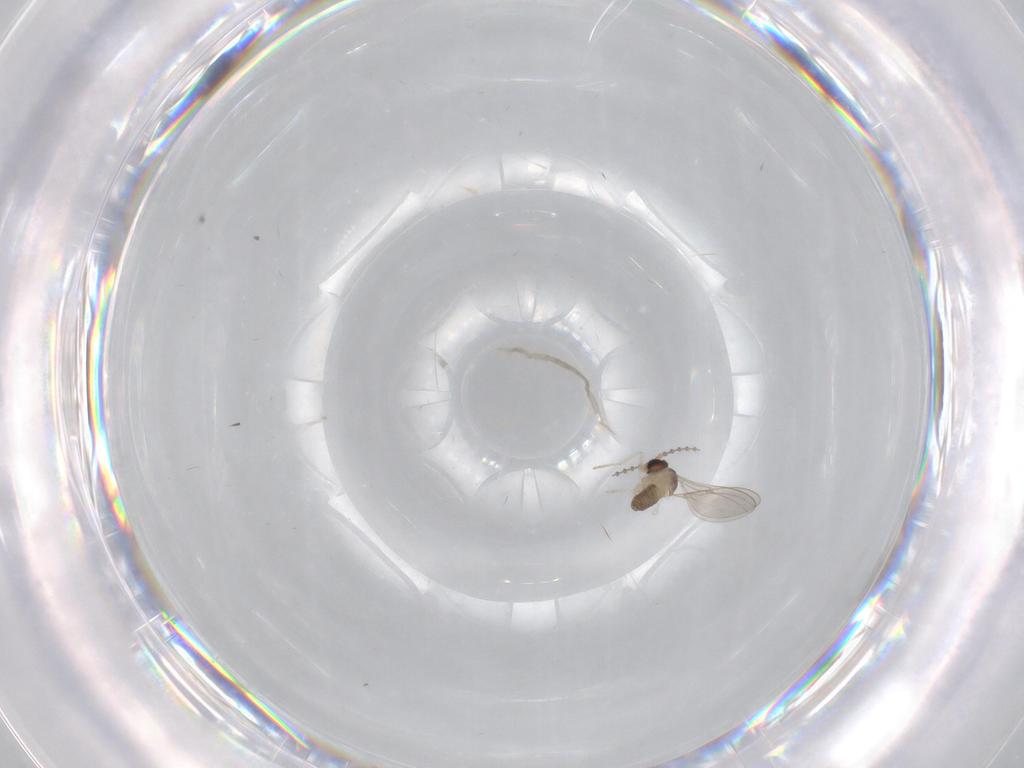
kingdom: Animalia
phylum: Arthropoda
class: Insecta
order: Diptera
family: Cecidomyiidae
